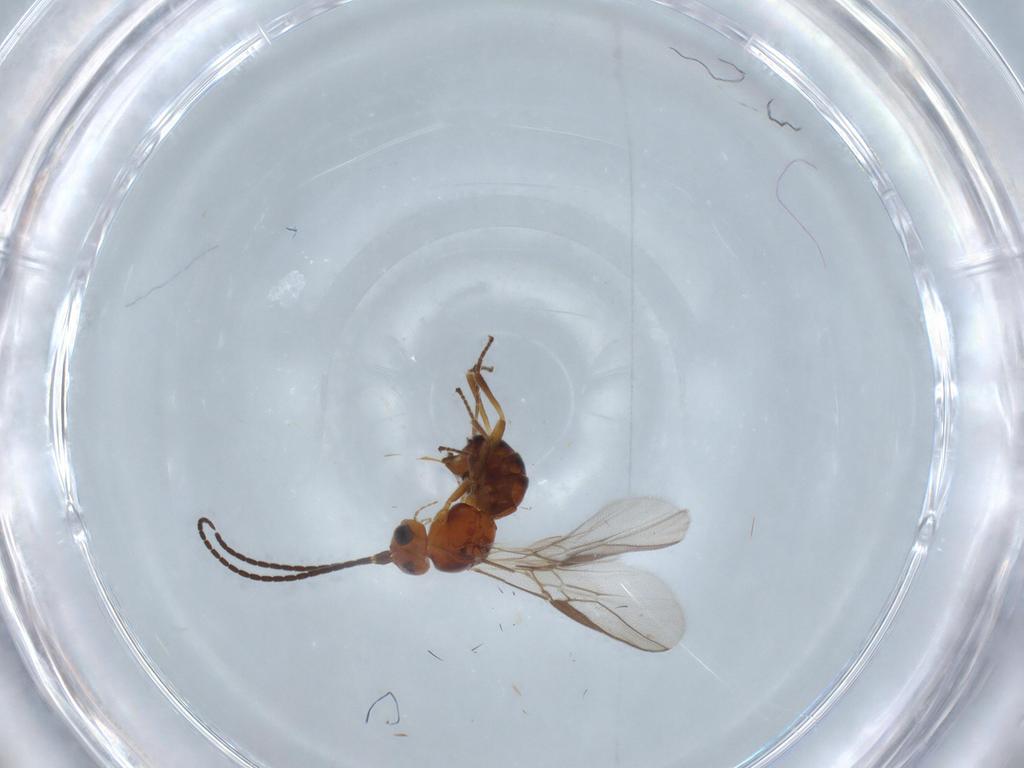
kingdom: Animalia
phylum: Arthropoda
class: Insecta
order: Hymenoptera
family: Braconidae
